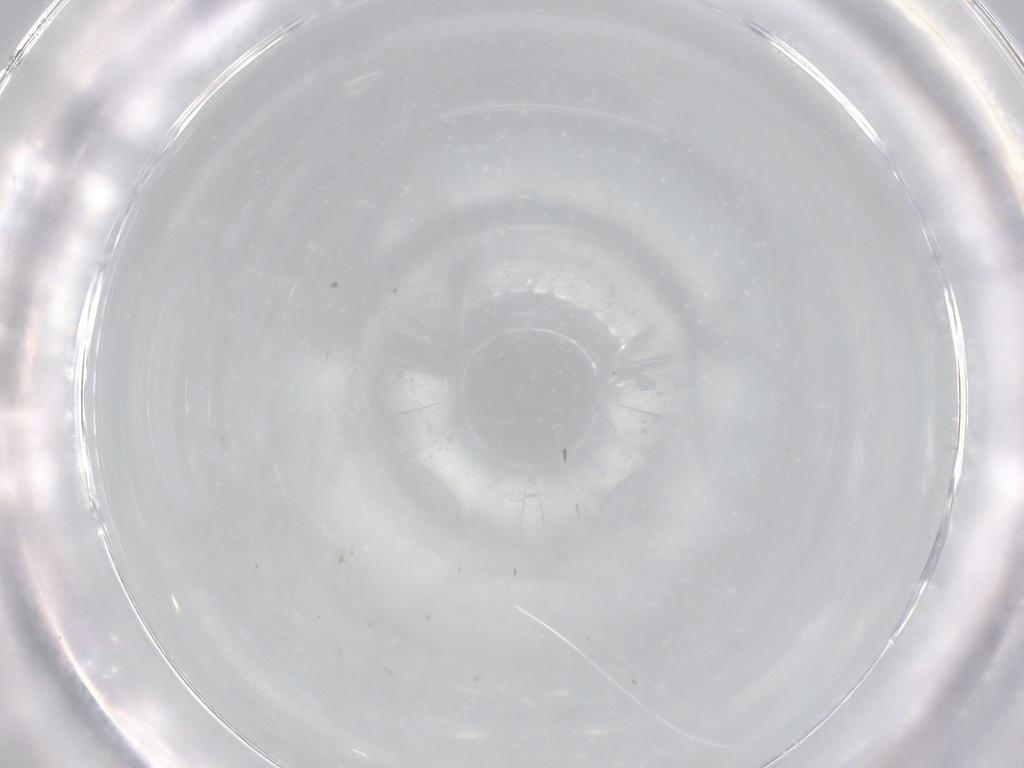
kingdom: Animalia
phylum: Arthropoda
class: Insecta
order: Diptera
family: Cecidomyiidae
